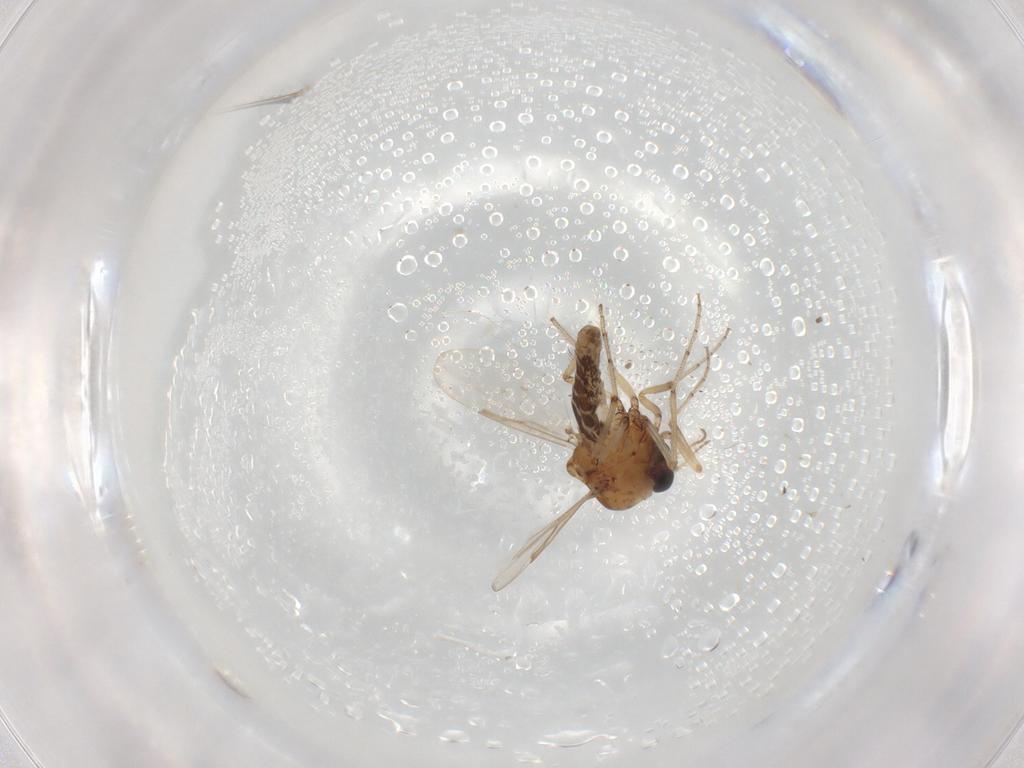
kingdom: Animalia
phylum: Arthropoda
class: Insecta
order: Diptera
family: Ceratopogonidae
